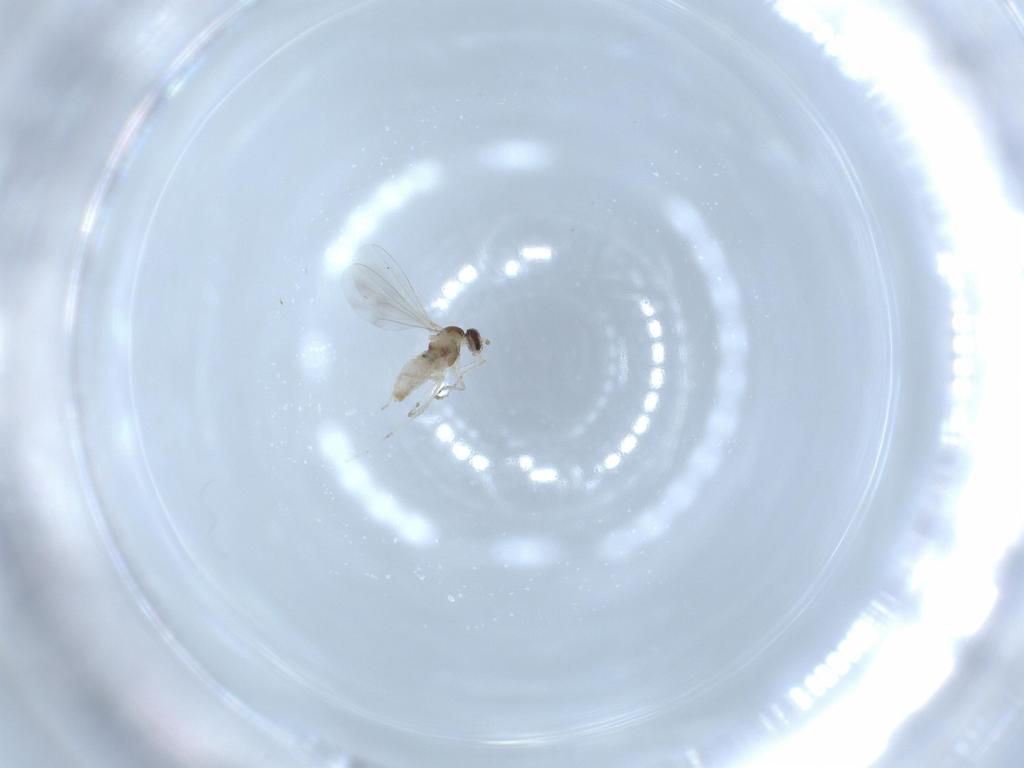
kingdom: Animalia
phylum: Arthropoda
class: Insecta
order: Diptera
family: Cecidomyiidae
